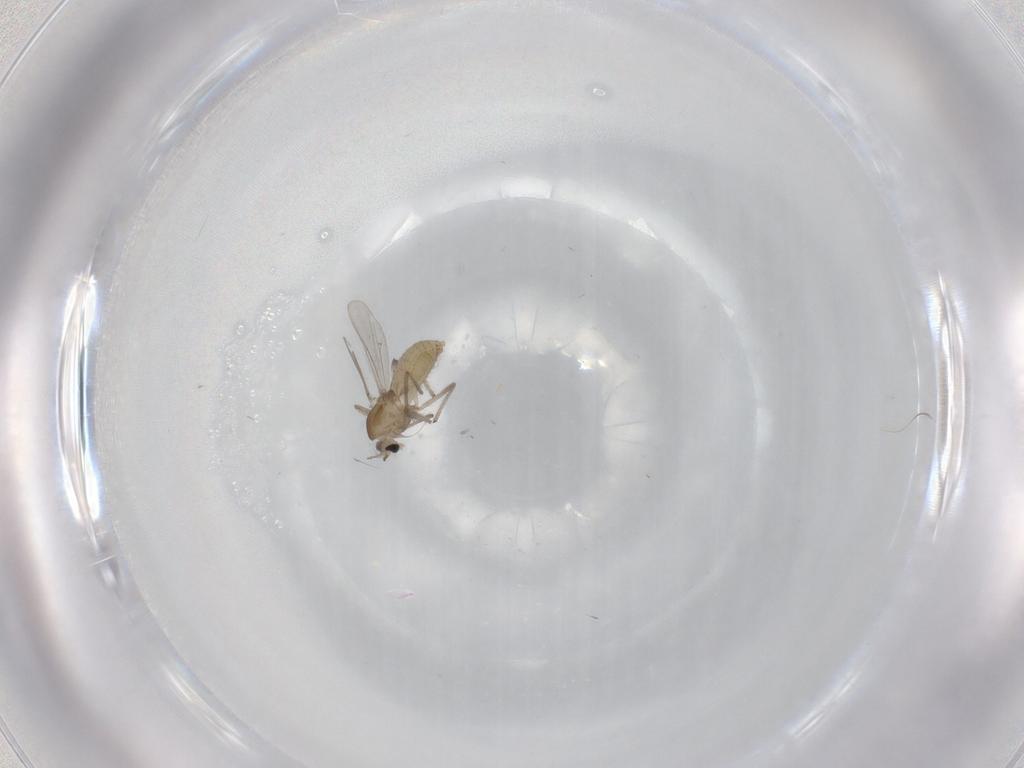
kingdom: Animalia
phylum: Arthropoda
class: Insecta
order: Diptera
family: Chironomidae
